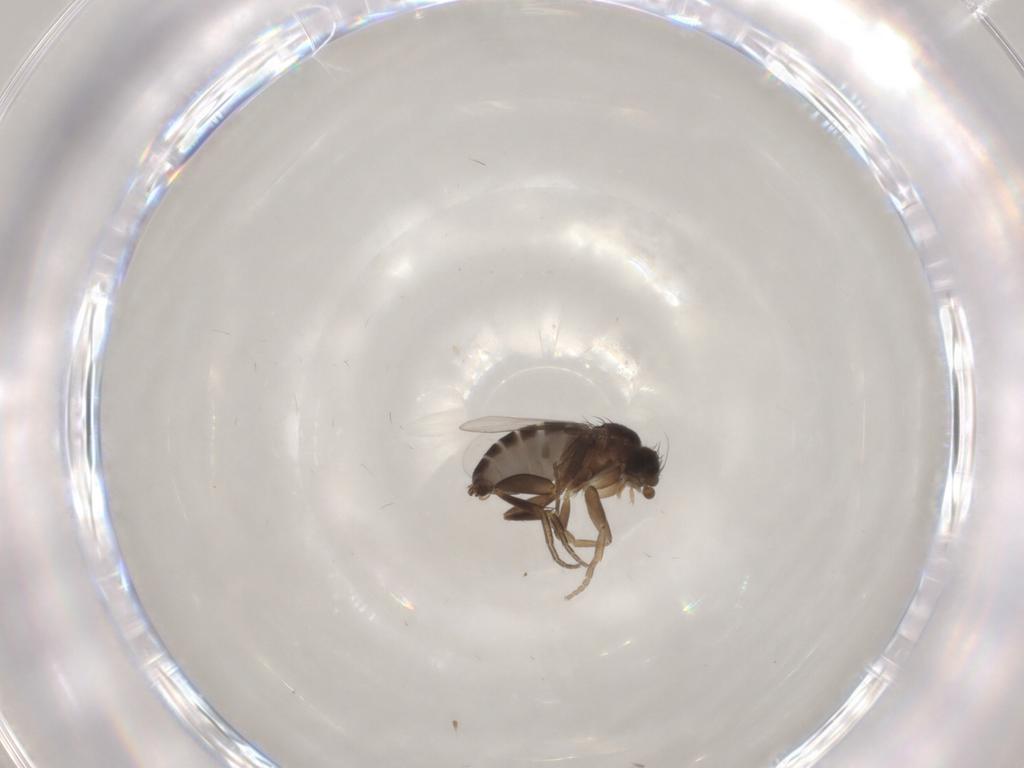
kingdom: Animalia
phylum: Arthropoda
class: Insecta
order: Diptera
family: Phoridae
